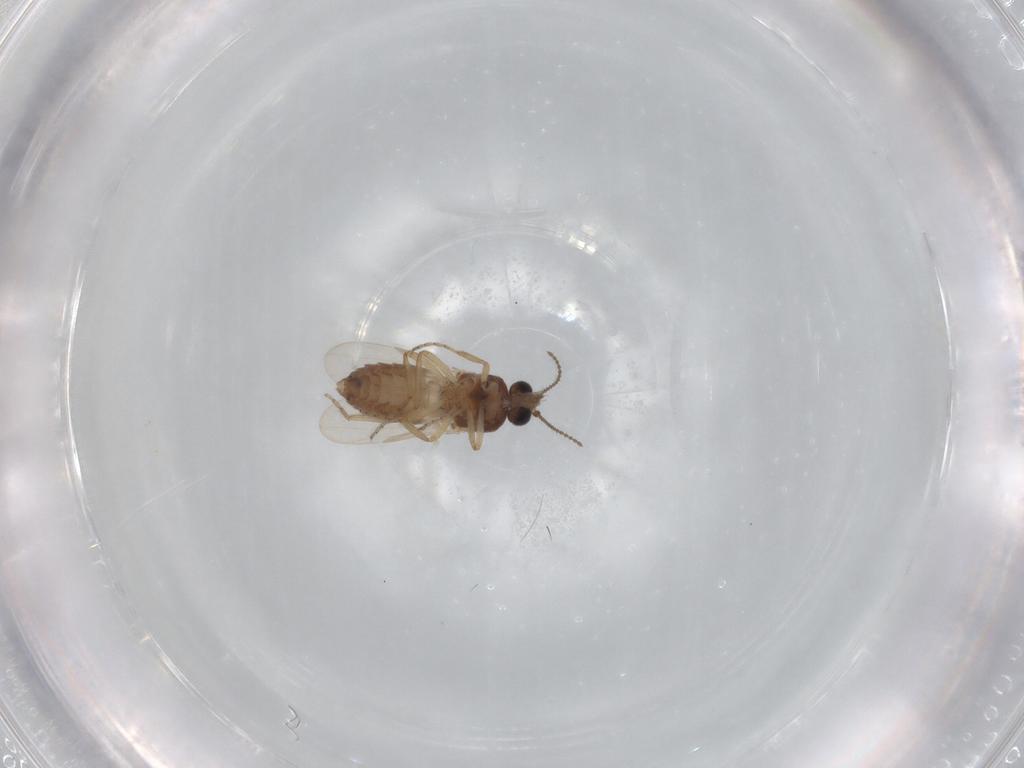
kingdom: Animalia
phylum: Arthropoda
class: Insecta
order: Diptera
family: Ceratopogonidae
